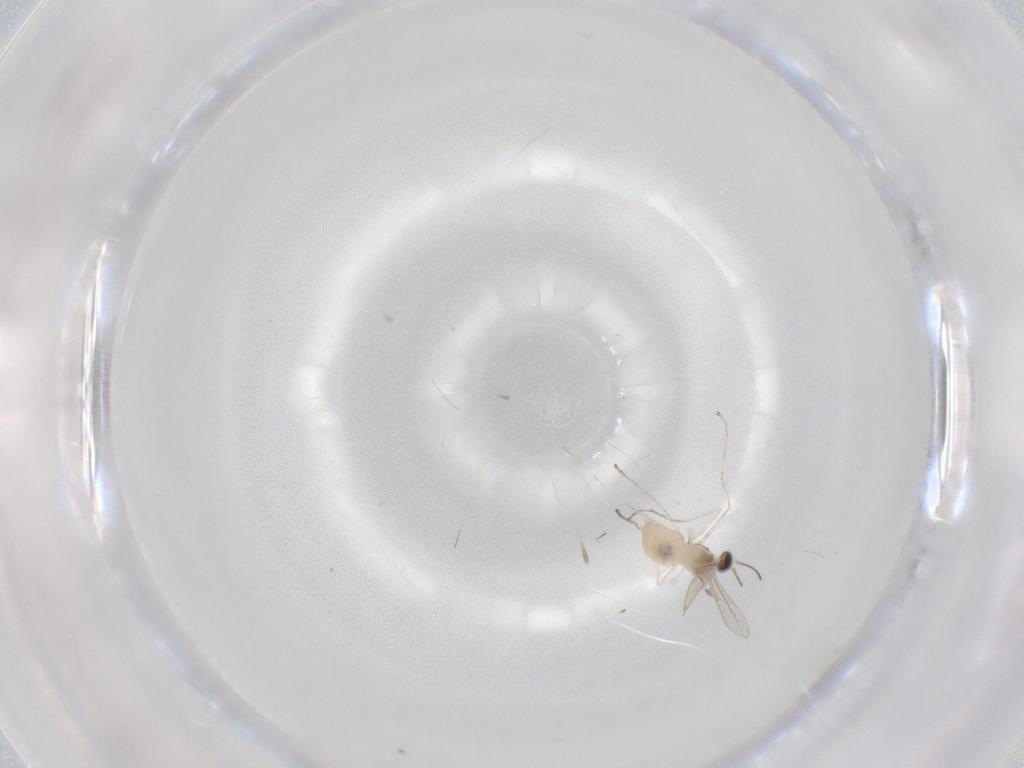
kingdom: Animalia
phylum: Arthropoda
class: Insecta
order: Diptera
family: Cecidomyiidae
